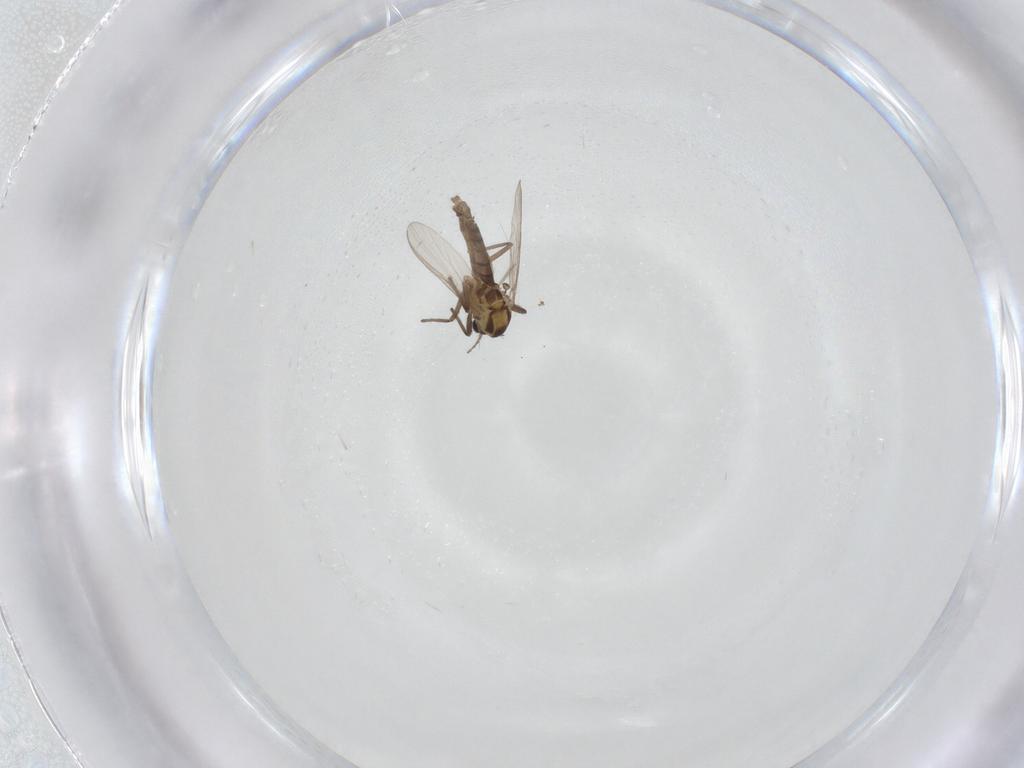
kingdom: Animalia
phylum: Arthropoda
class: Insecta
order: Diptera
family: Chironomidae
